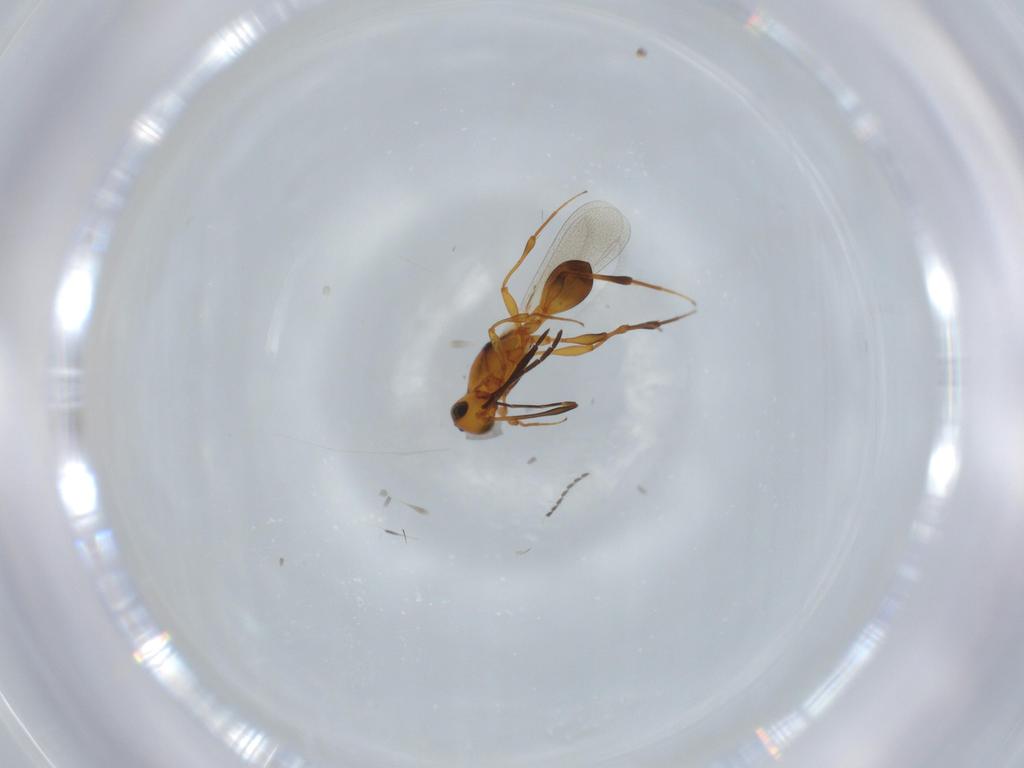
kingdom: Animalia
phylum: Arthropoda
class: Insecta
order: Hymenoptera
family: Platygastridae
